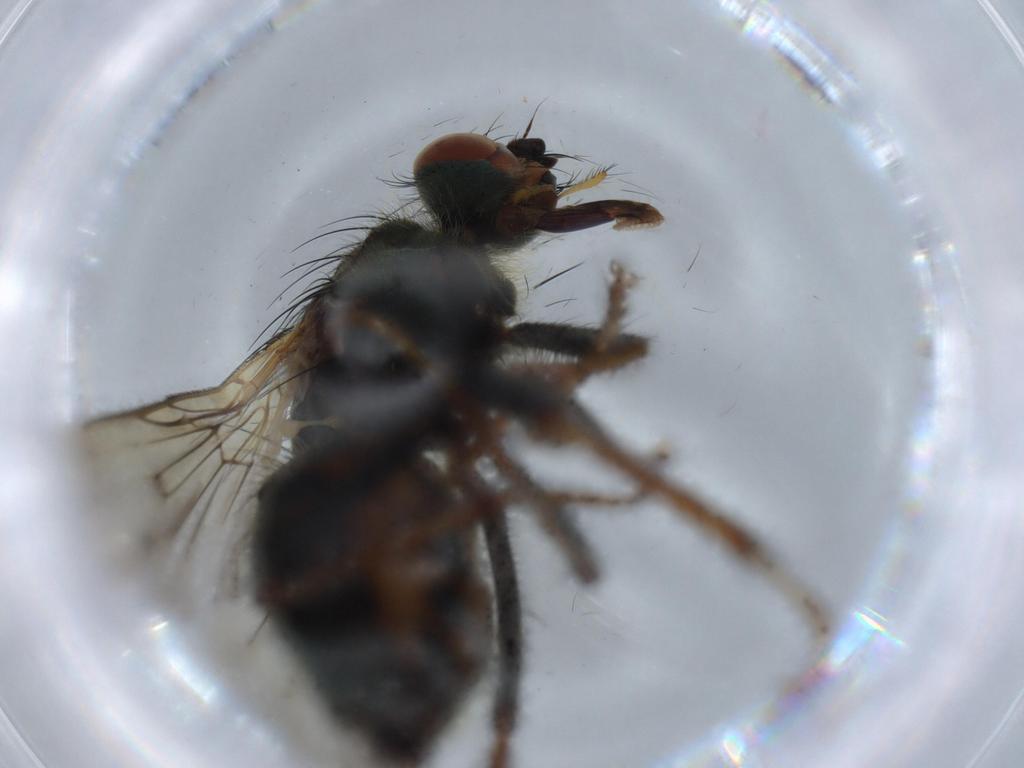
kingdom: Animalia
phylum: Arthropoda
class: Insecta
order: Diptera
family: Scathophagidae
